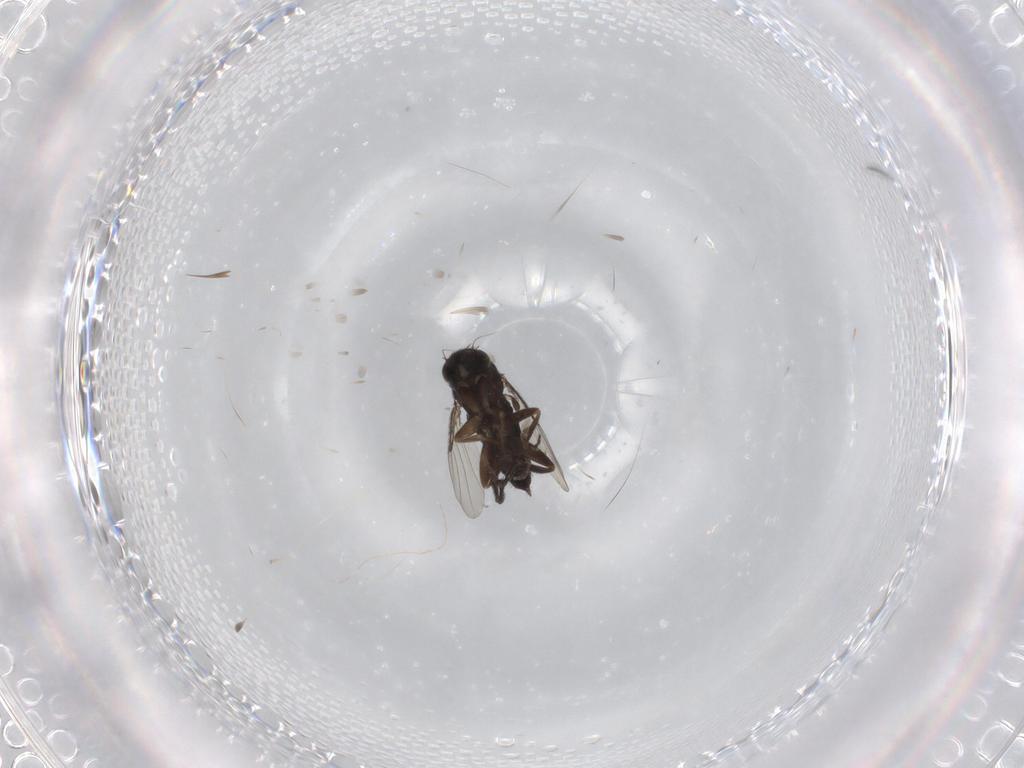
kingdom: Animalia
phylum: Arthropoda
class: Insecta
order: Diptera
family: Phoridae
